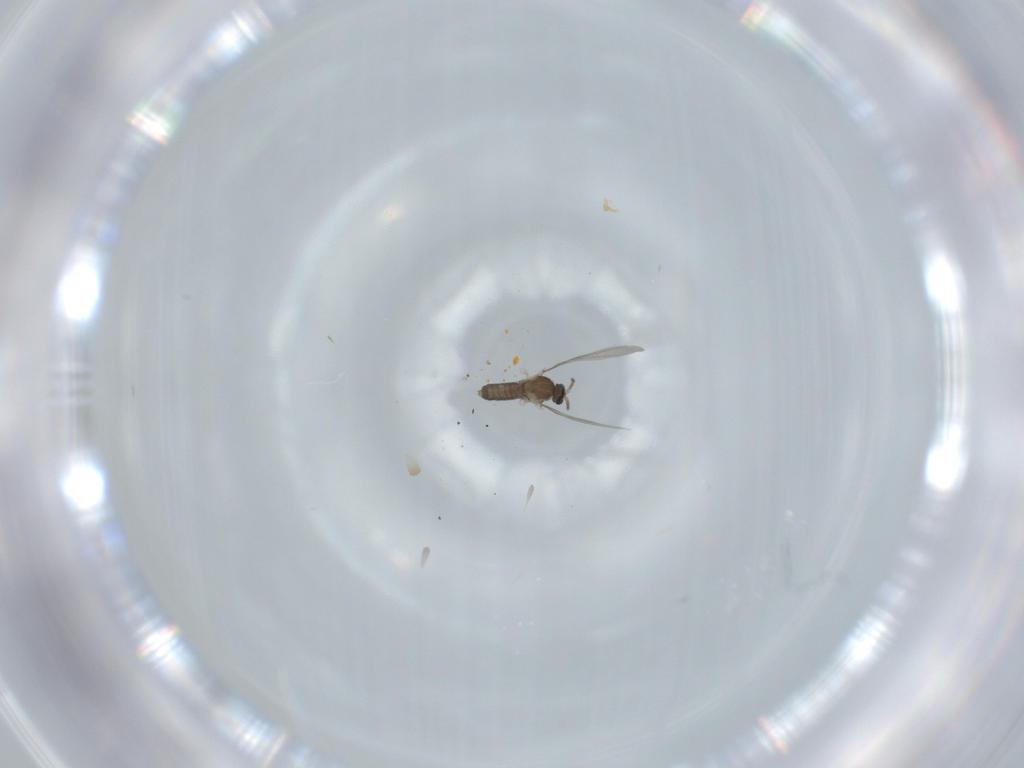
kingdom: Animalia
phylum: Arthropoda
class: Insecta
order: Diptera
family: Cecidomyiidae
